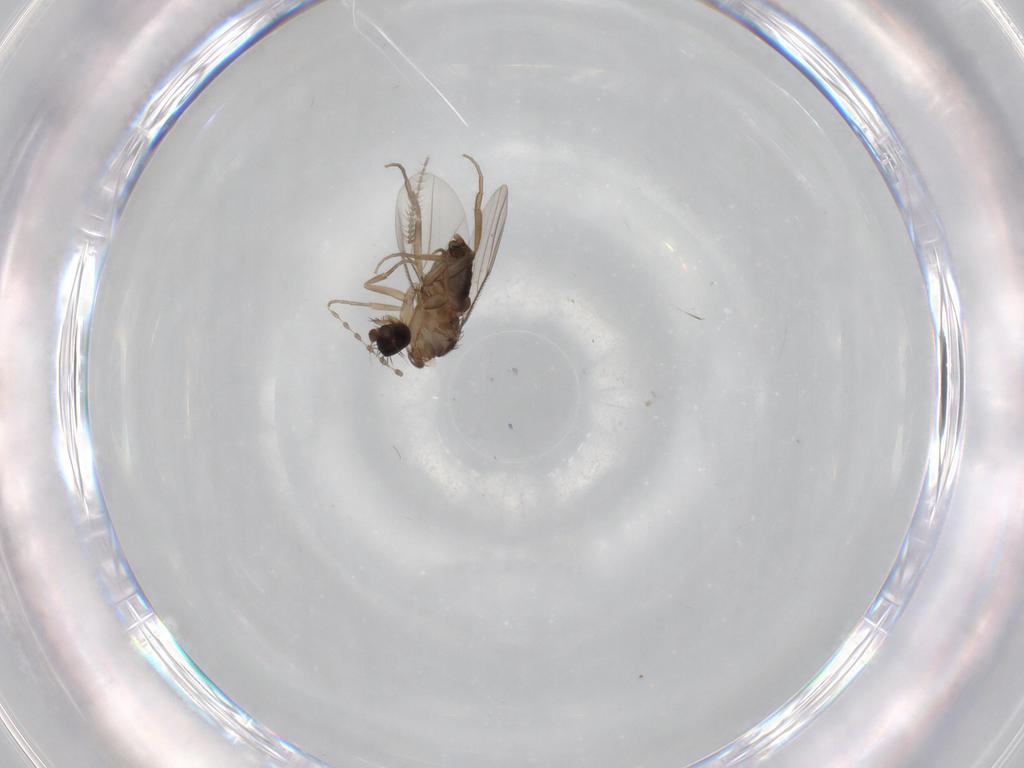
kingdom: Animalia
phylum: Arthropoda
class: Insecta
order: Diptera
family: Phoridae
